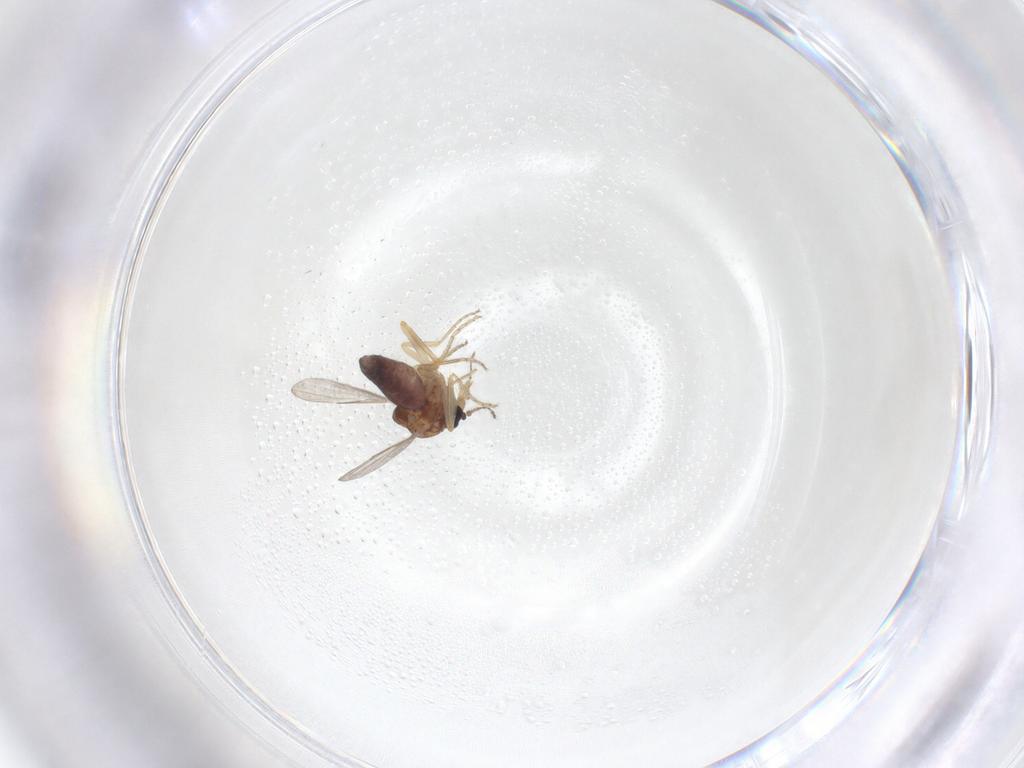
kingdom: Animalia
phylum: Arthropoda
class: Insecta
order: Diptera
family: Ceratopogonidae
